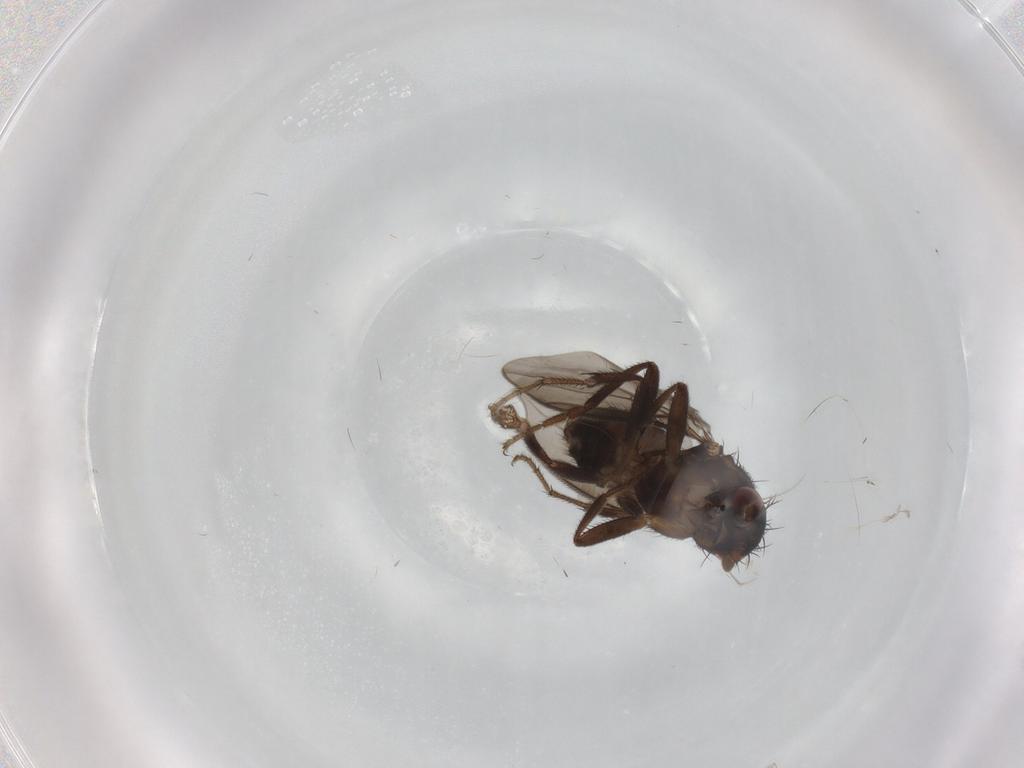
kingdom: Animalia
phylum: Arthropoda
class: Insecta
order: Diptera
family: Sphaeroceridae
